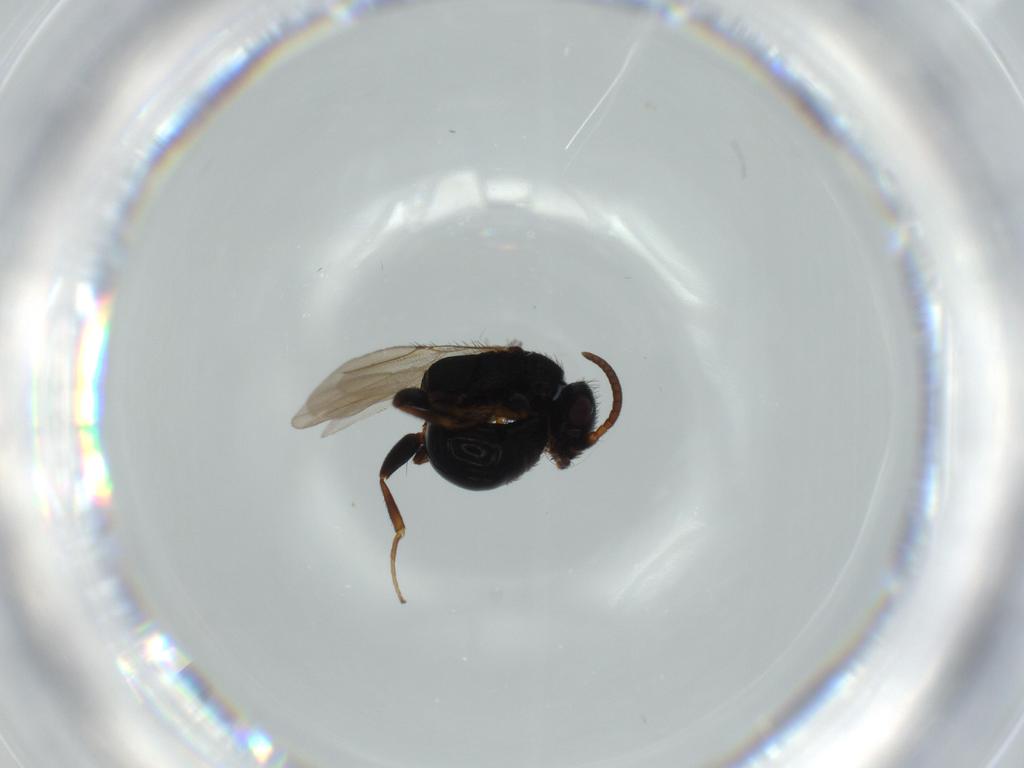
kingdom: Animalia
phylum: Arthropoda
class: Insecta
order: Hymenoptera
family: Bethylidae
